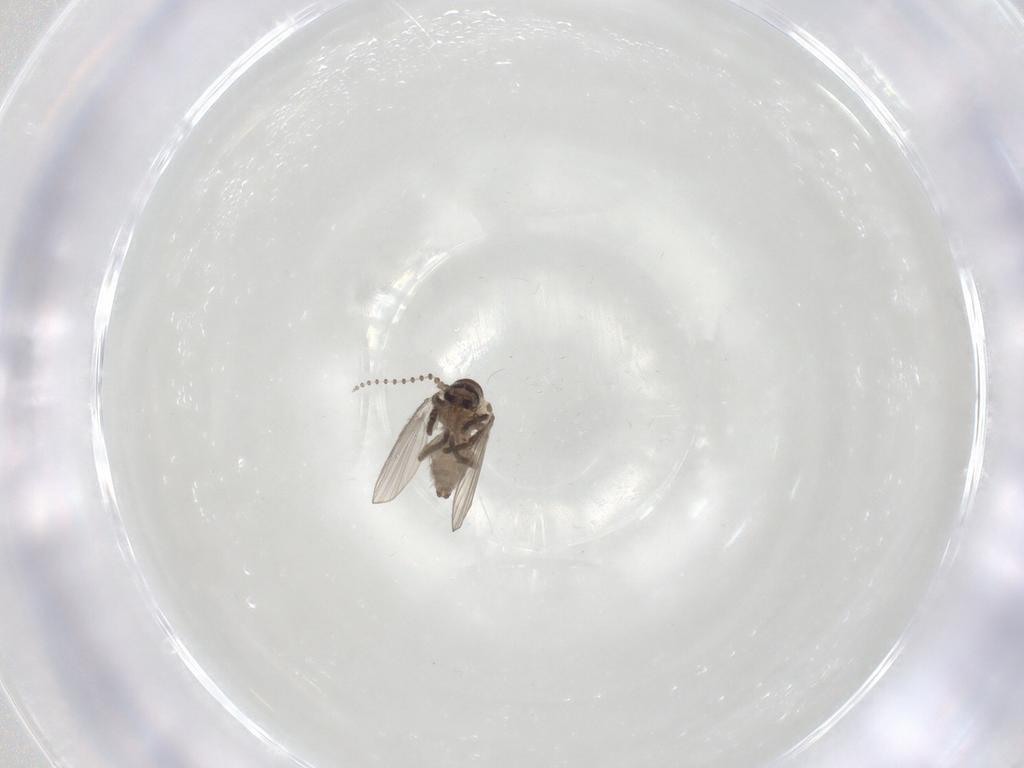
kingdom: Animalia
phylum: Arthropoda
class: Insecta
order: Diptera
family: Psychodidae
